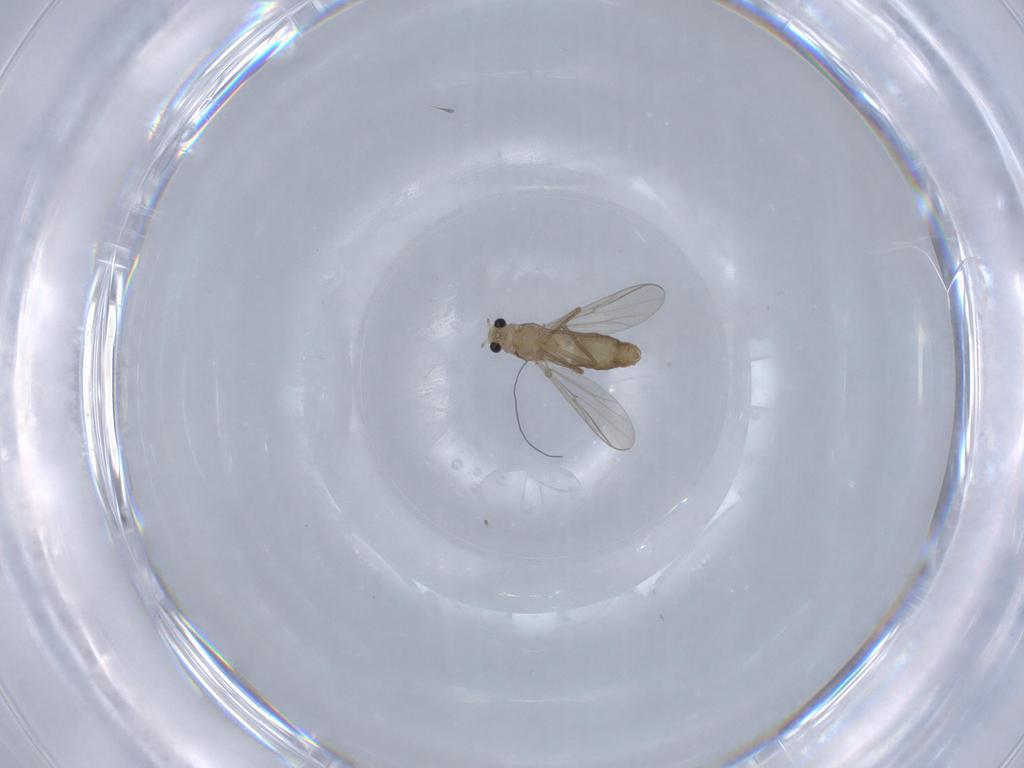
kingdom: Animalia
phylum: Arthropoda
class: Insecta
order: Diptera
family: Chironomidae
